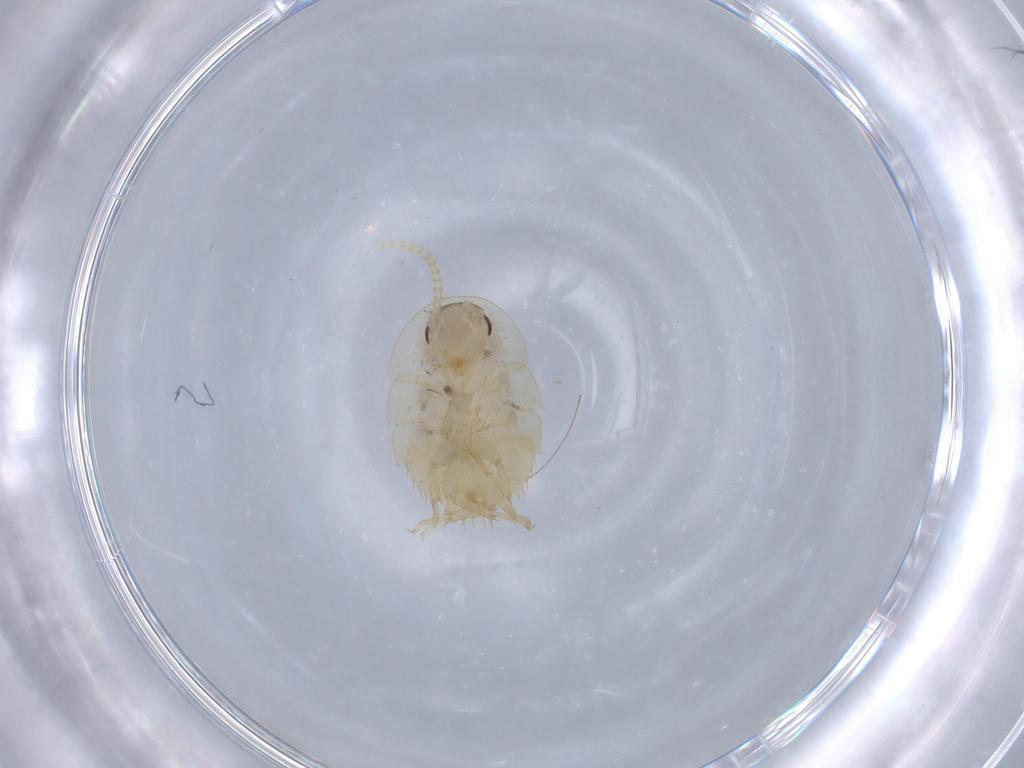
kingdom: Animalia
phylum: Arthropoda
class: Insecta
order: Blattodea
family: Ectobiidae
